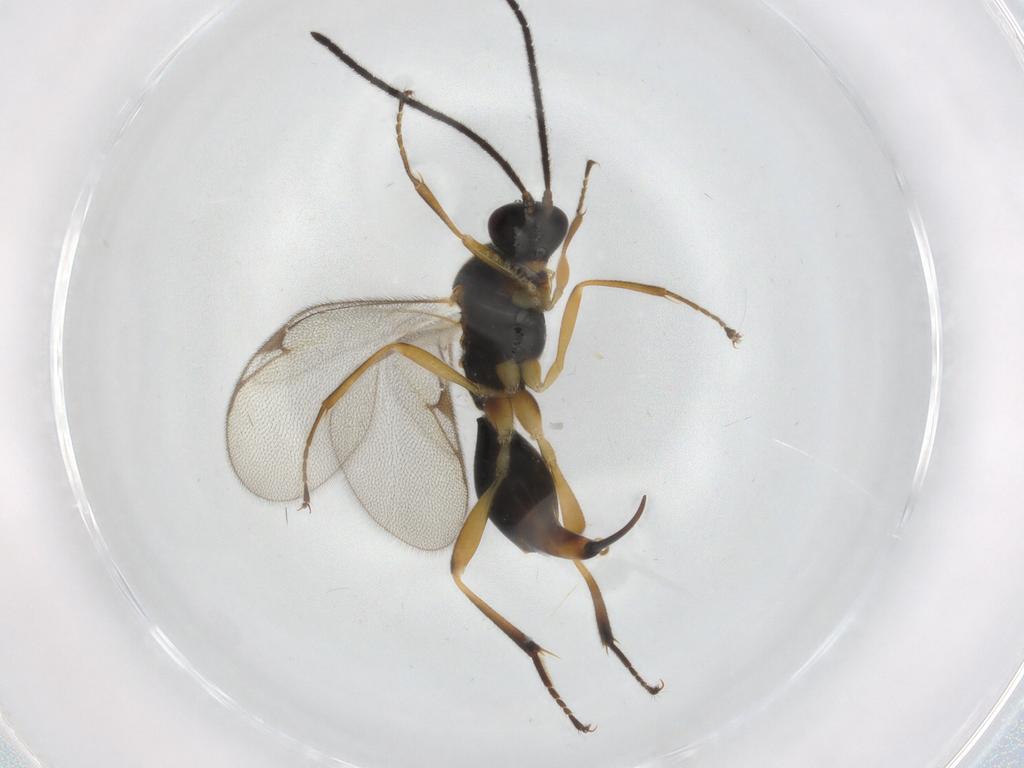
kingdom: Animalia
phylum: Arthropoda
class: Insecta
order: Hymenoptera
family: Proctotrupidae
